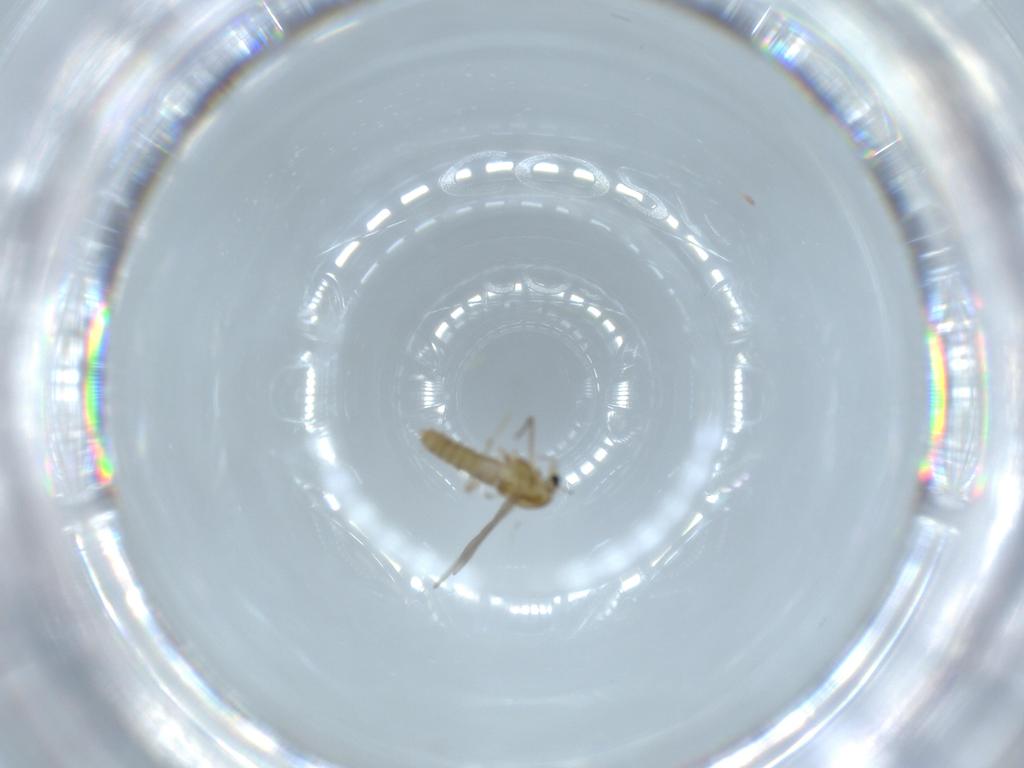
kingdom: Animalia
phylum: Arthropoda
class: Insecta
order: Diptera
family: Chironomidae
